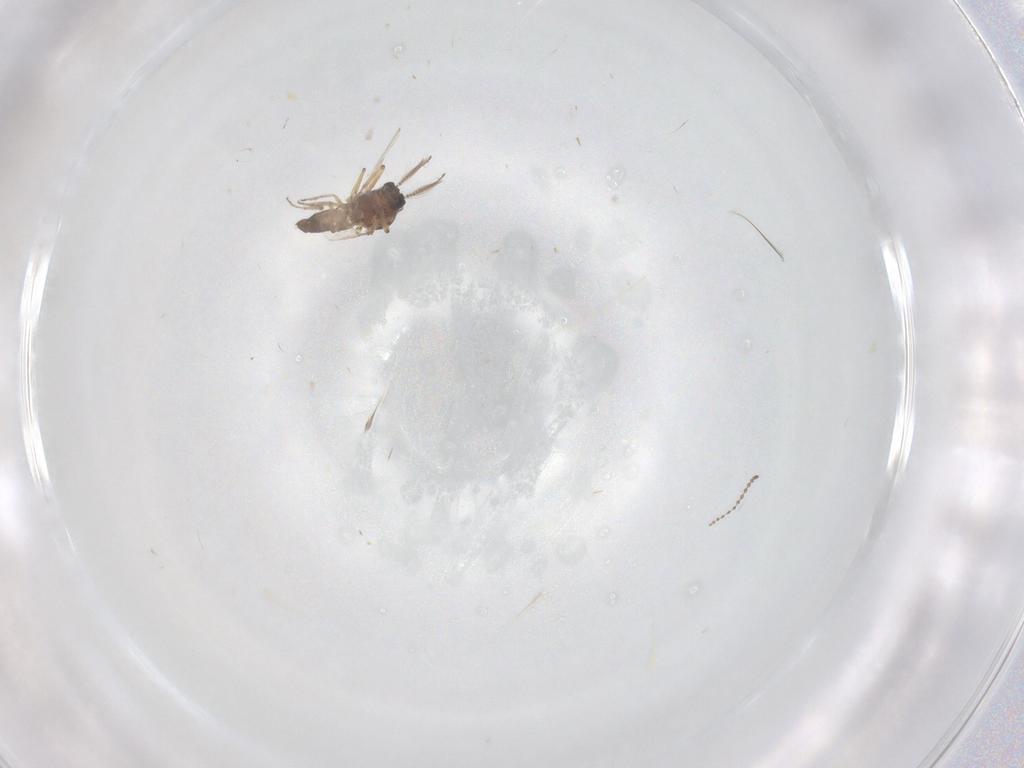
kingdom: Animalia
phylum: Arthropoda
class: Insecta
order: Diptera
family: Ceratopogonidae
